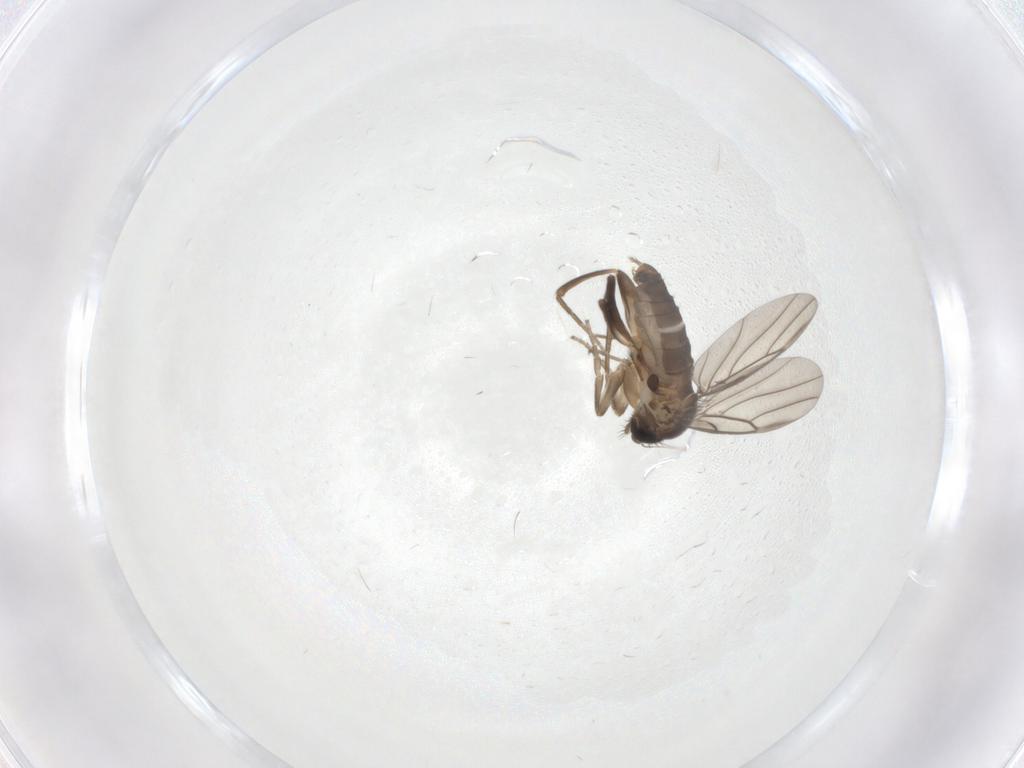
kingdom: Animalia
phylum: Arthropoda
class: Insecta
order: Diptera
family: Phoridae
